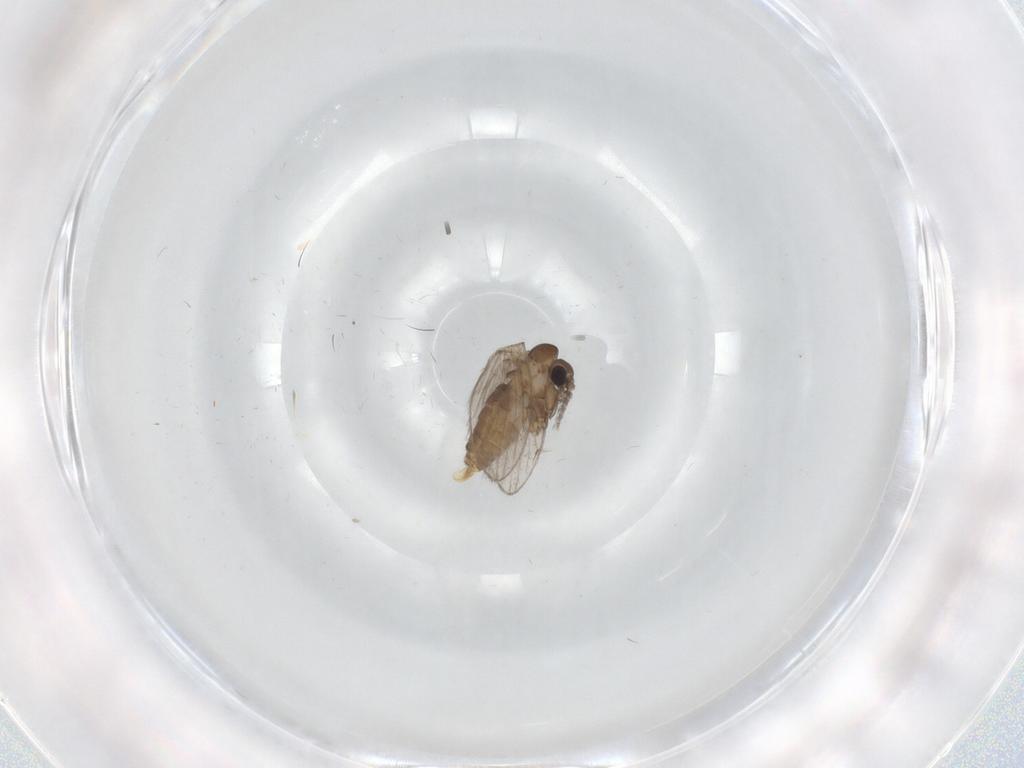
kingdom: Animalia
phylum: Arthropoda
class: Insecta
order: Diptera
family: Psychodidae
